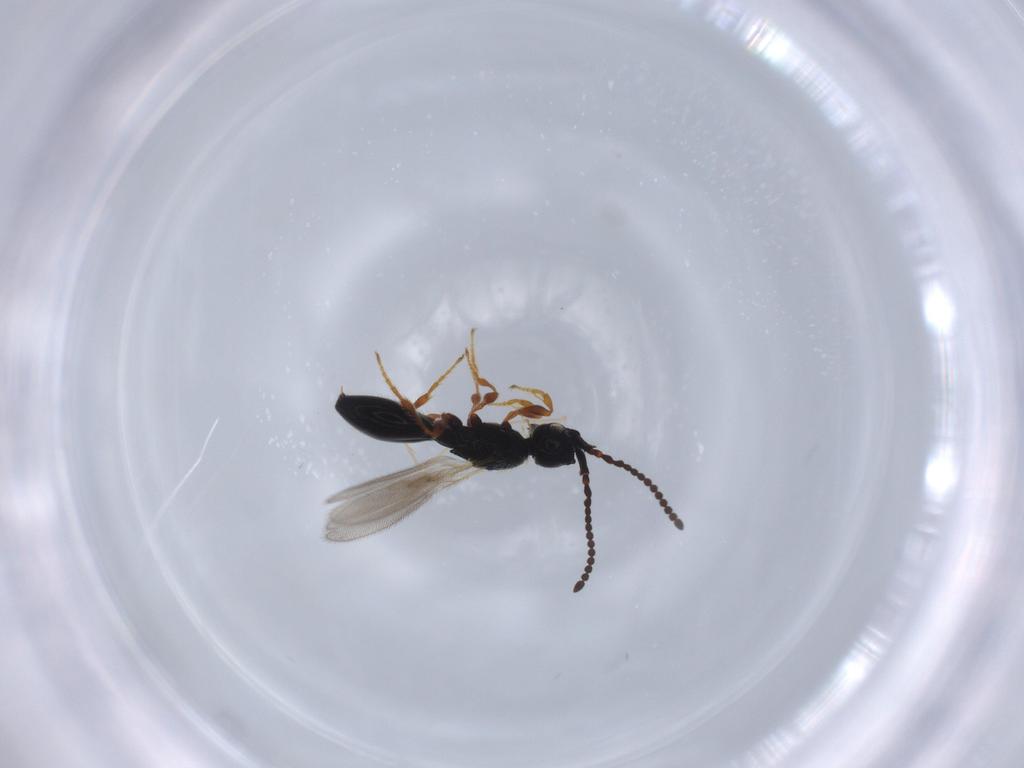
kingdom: Animalia
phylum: Arthropoda
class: Insecta
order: Hymenoptera
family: Diapriidae
